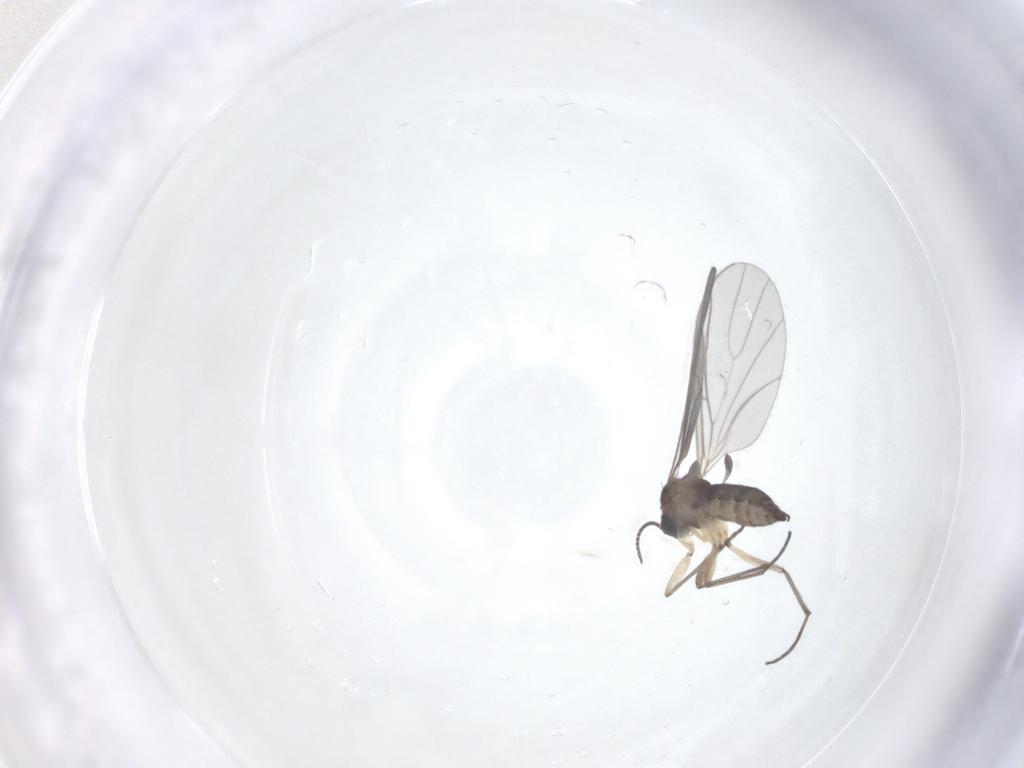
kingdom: Animalia
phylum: Arthropoda
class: Insecta
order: Diptera
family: Sciaridae
